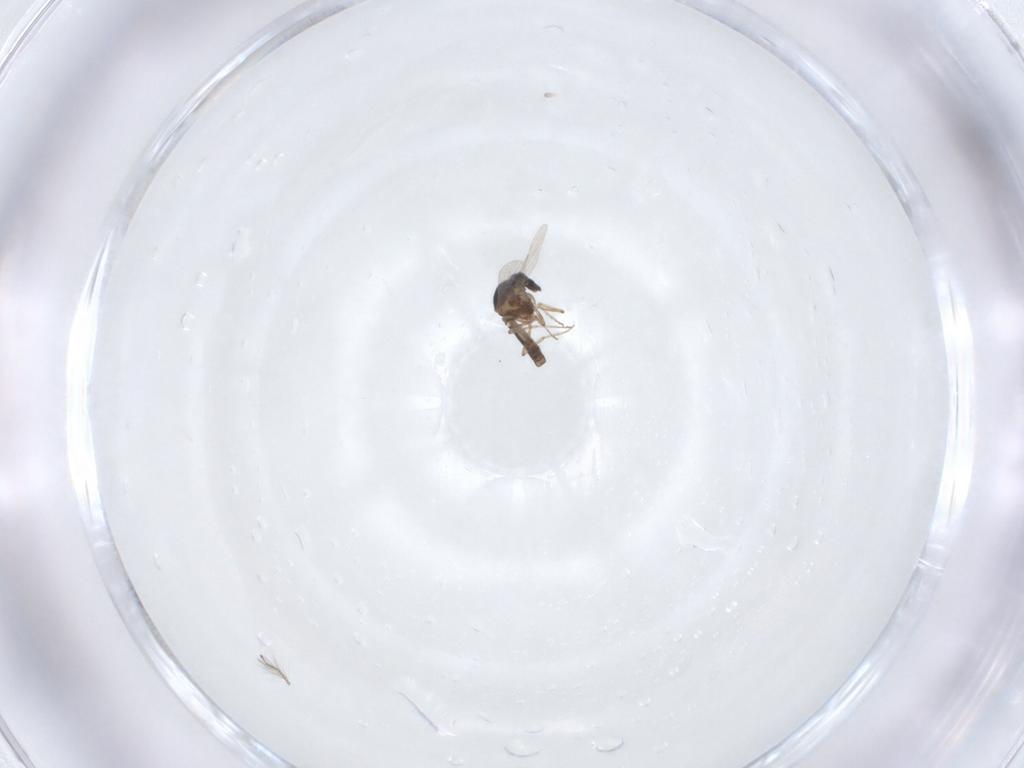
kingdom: Animalia
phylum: Arthropoda
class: Insecta
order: Diptera
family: Ceratopogonidae
